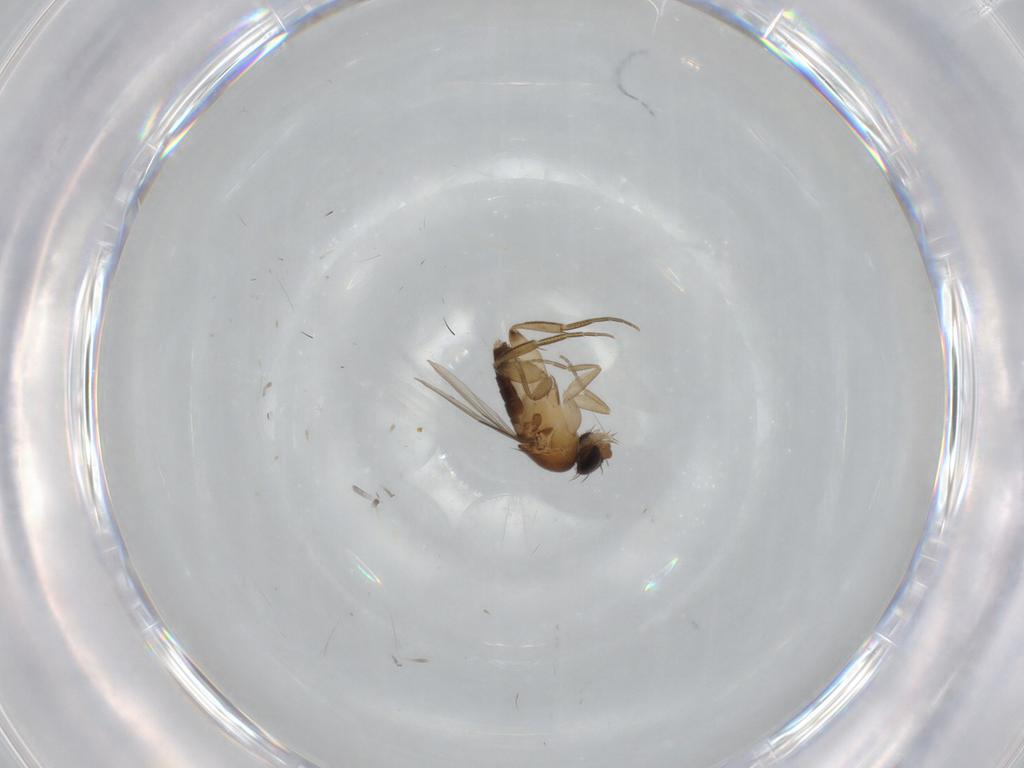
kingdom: Animalia
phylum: Arthropoda
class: Insecta
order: Diptera
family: Phoridae
